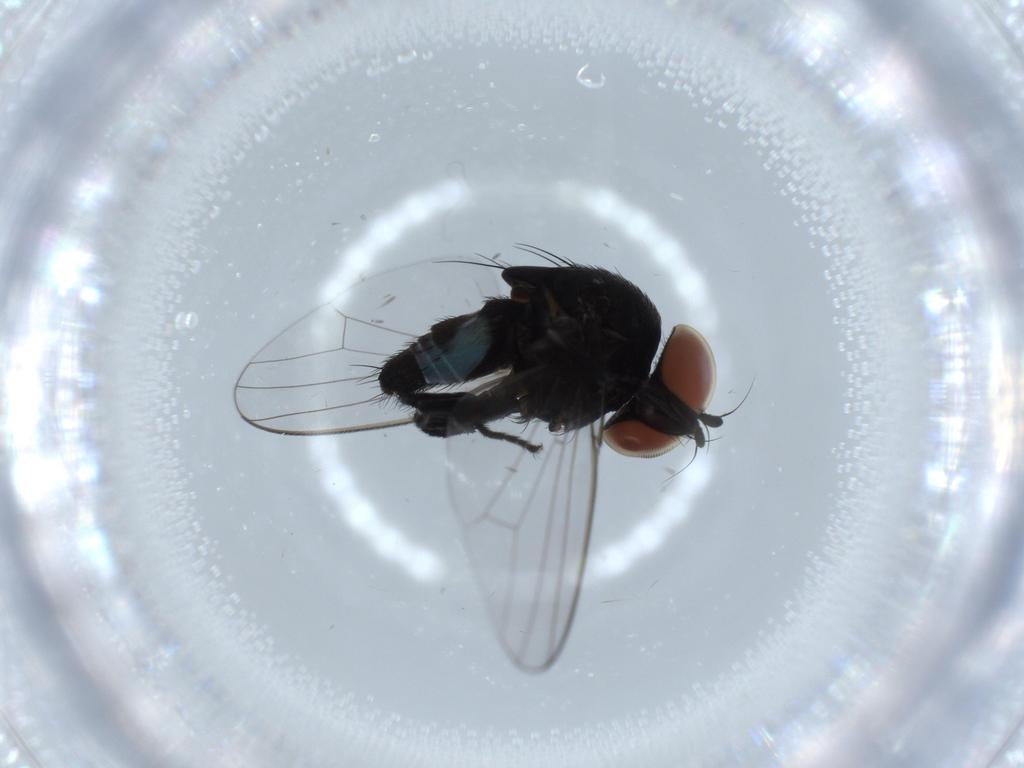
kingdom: Animalia
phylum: Arthropoda
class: Insecta
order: Diptera
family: Milichiidae
